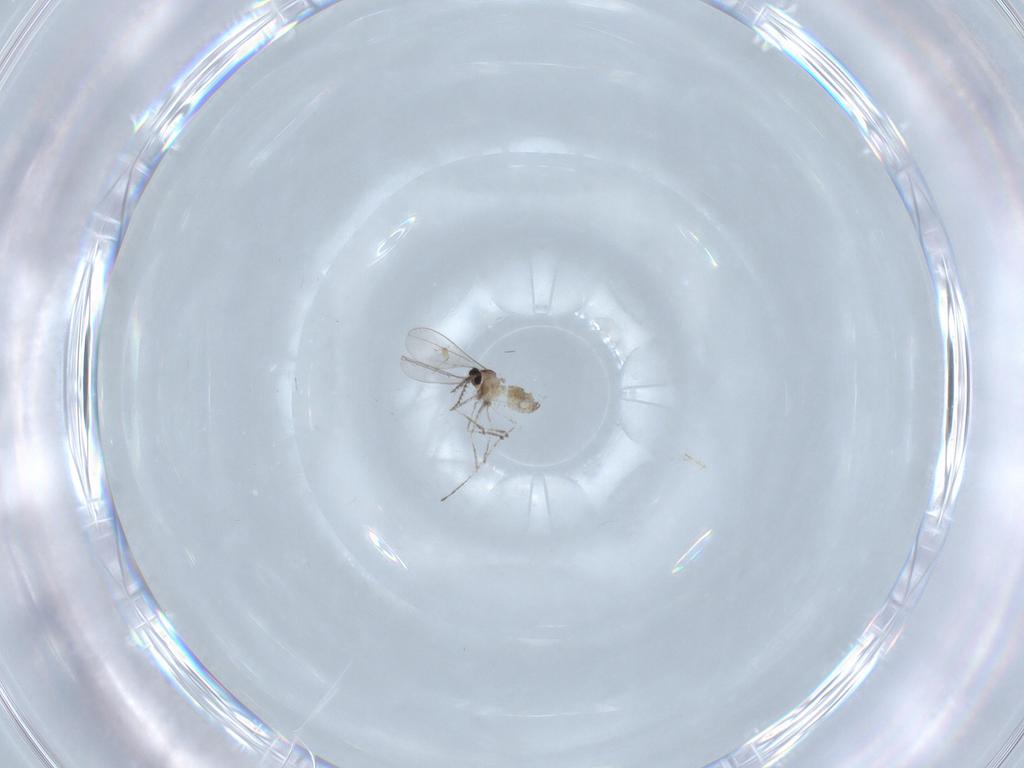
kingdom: Animalia
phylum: Arthropoda
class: Insecta
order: Diptera
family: Cecidomyiidae
